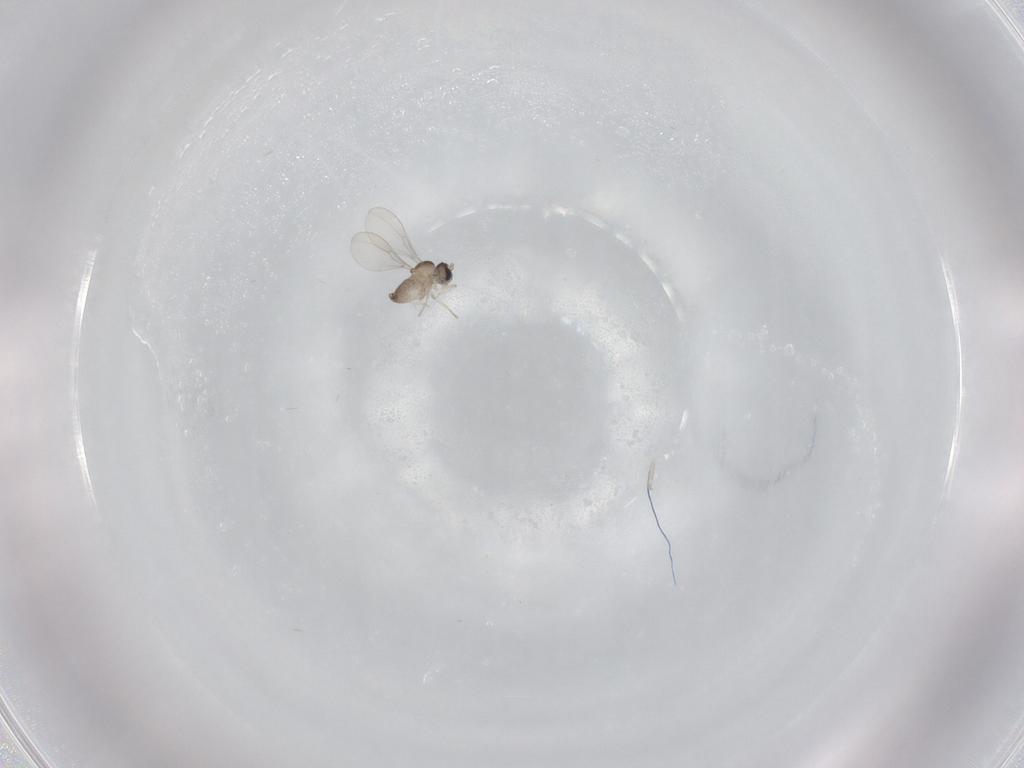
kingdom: Animalia
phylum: Arthropoda
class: Insecta
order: Diptera
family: Cecidomyiidae
